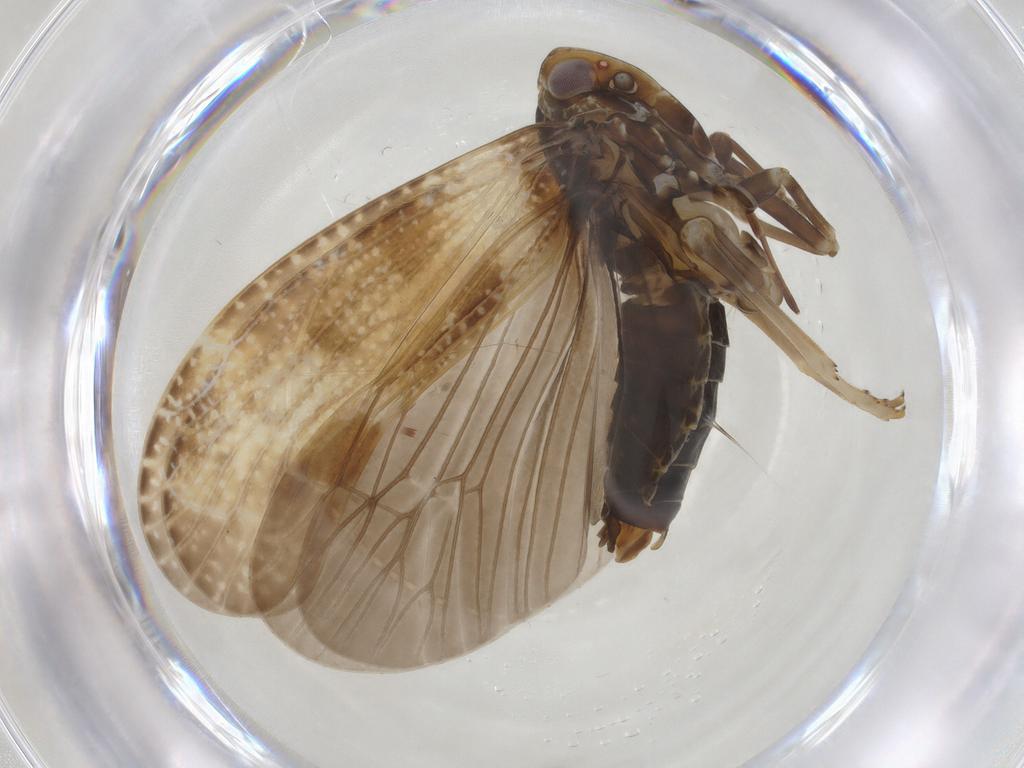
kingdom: Animalia
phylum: Arthropoda
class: Insecta
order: Hemiptera
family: Achilidae
